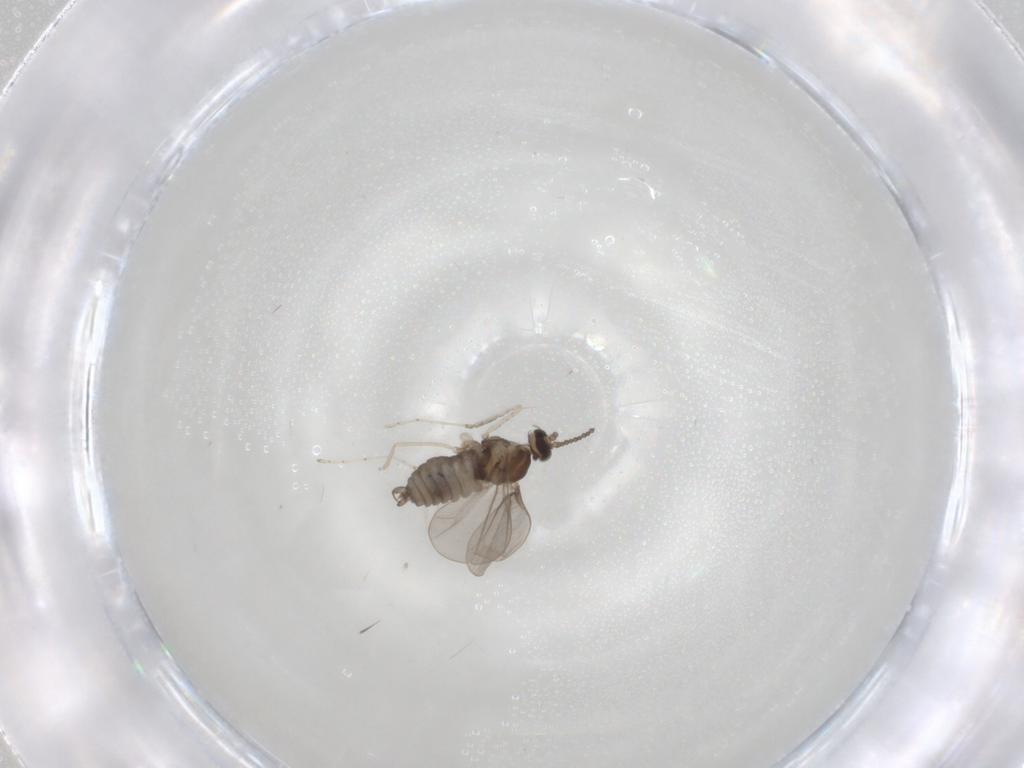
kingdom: Animalia
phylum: Arthropoda
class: Insecta
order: Diptera
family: Cecidomyiidae
